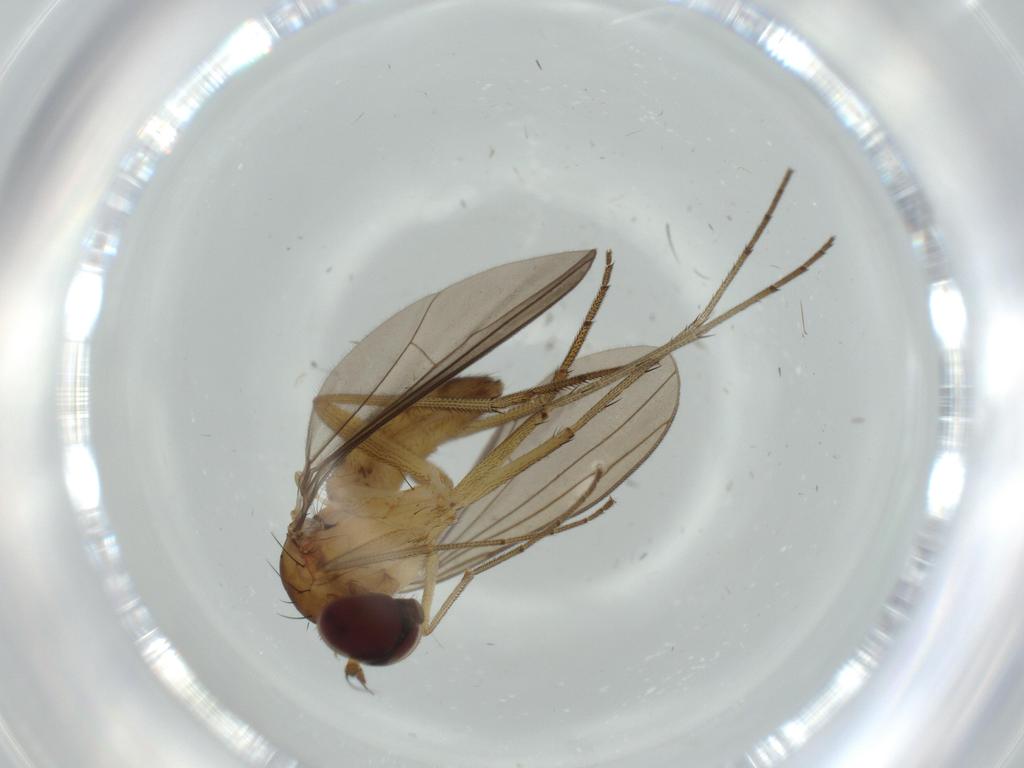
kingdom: Animalia
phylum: Arthropoda
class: Insecta
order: Diptera
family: Dolichopodidae
